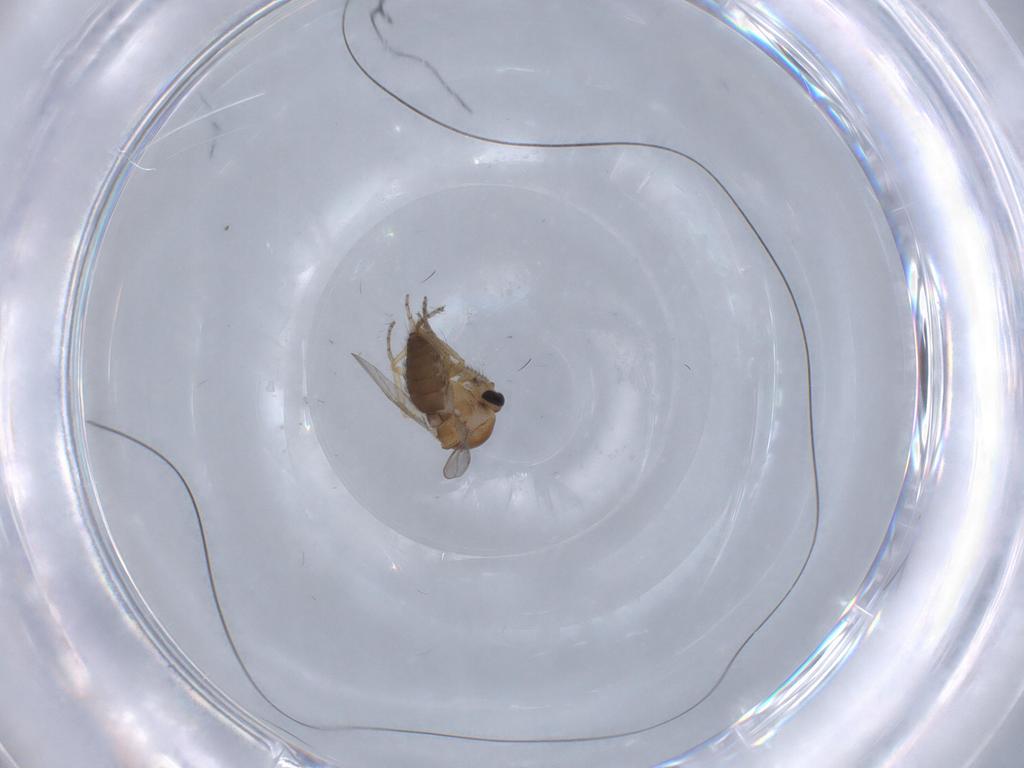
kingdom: Animalia
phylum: Arthropoda
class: Insecta
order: Diptera
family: Ceratopogonidae
